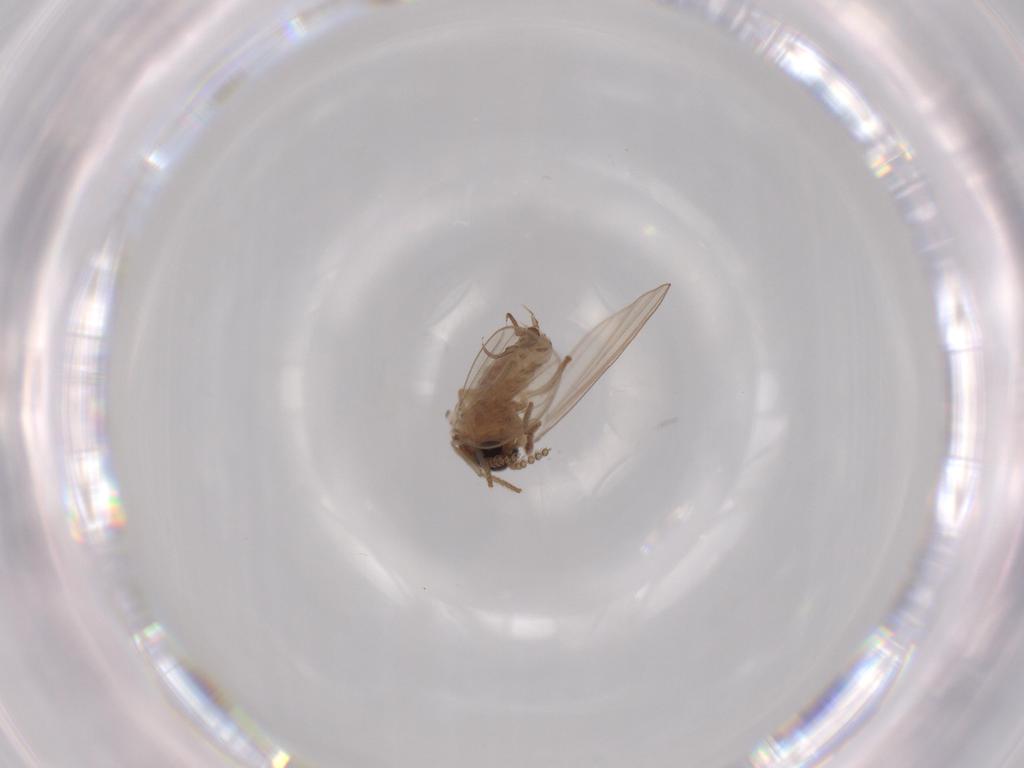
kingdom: Animalia
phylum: Arthropoda
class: Insecta
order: Diptera
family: Psychodidae
